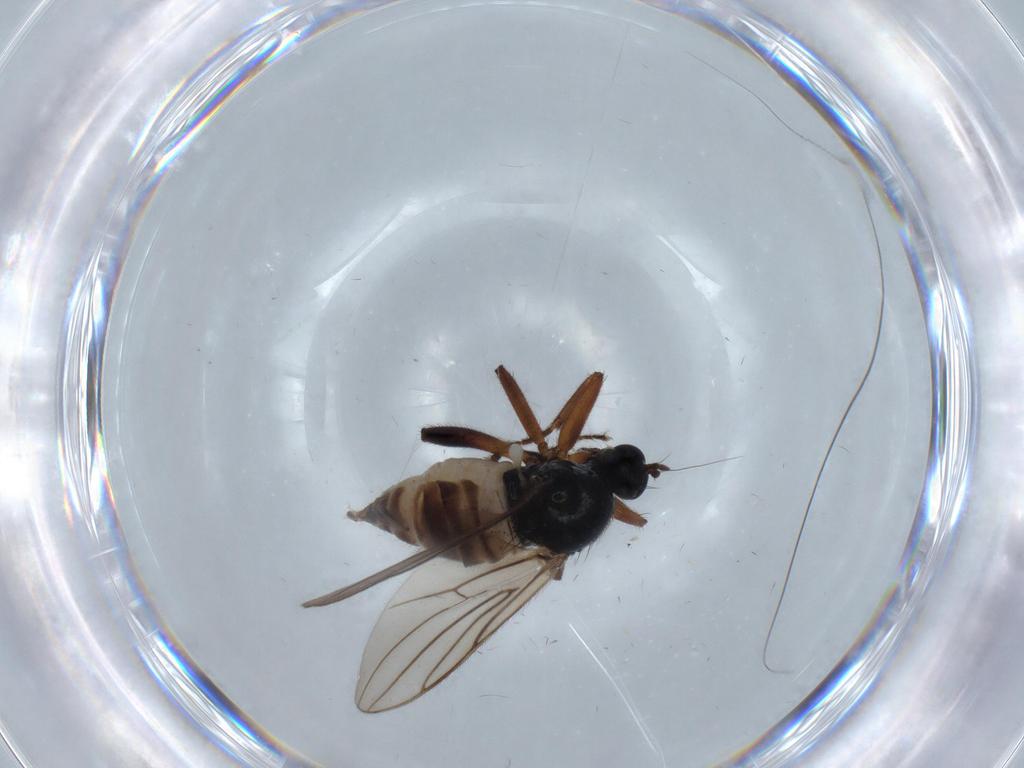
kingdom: Animalia
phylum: Arthropoda
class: Insecta
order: Diptera
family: Hybotidae
